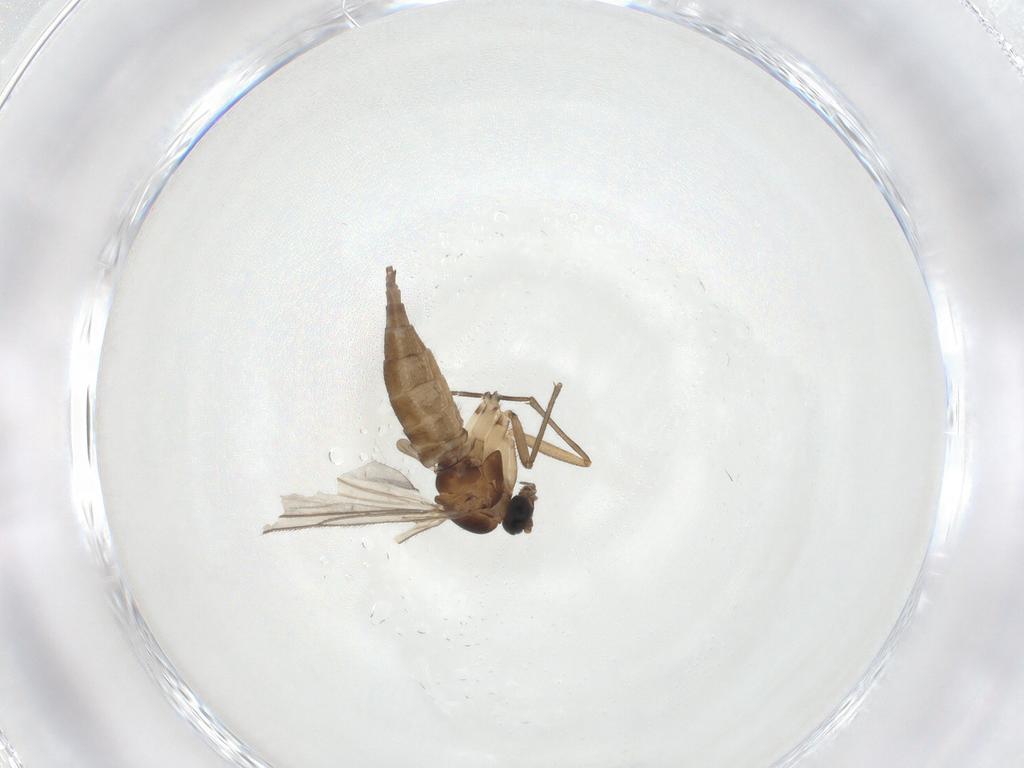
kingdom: Animalia
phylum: Arthropoda
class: Insecta
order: Diptera
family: Sciaridae
